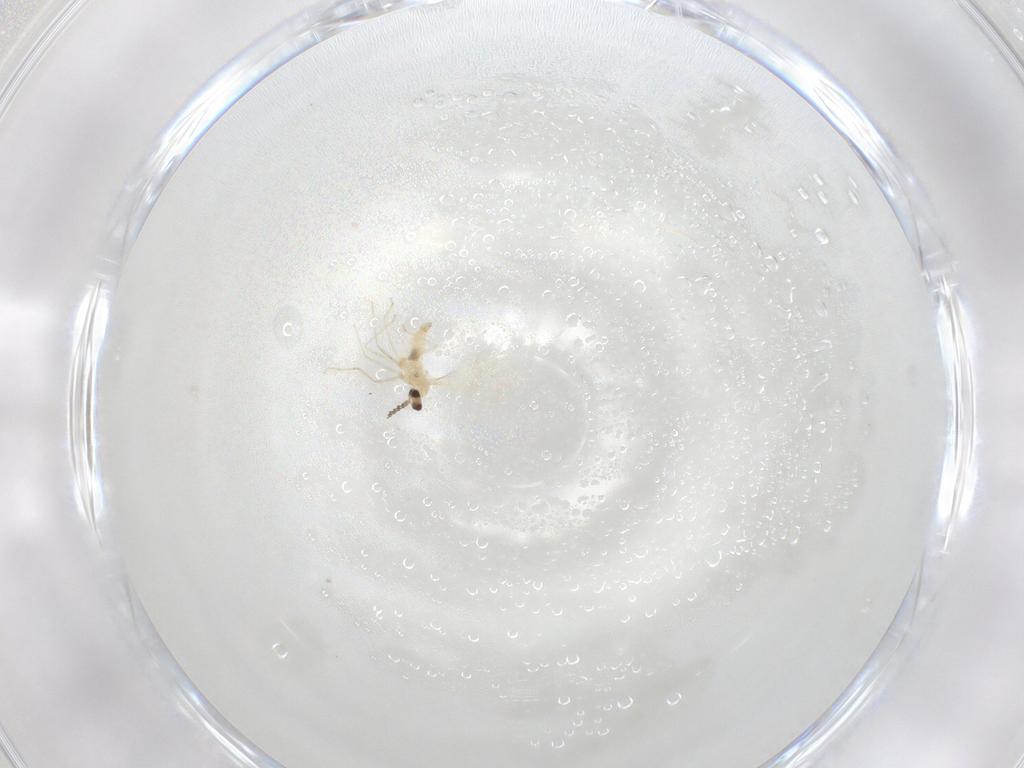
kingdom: Animalia
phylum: Arthropoda
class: Insecta
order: Diptera
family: Cecidomyiidae
